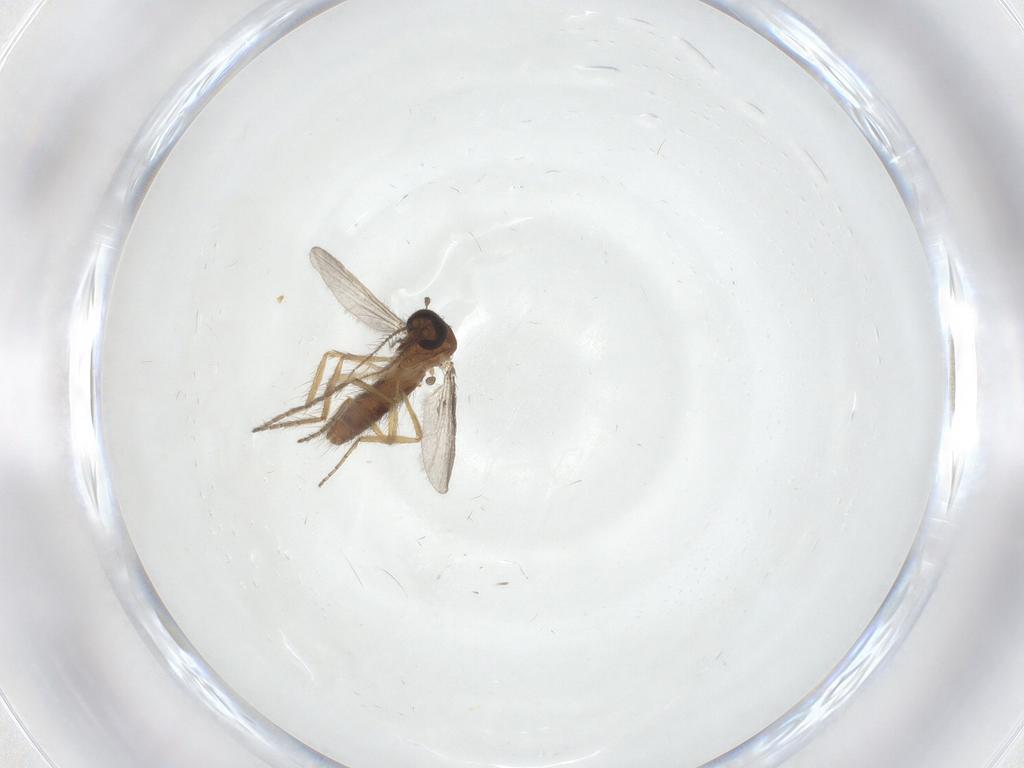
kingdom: Animalia
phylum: Arthropoda
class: Insecta
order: Diptera
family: Ceratopogonidae
